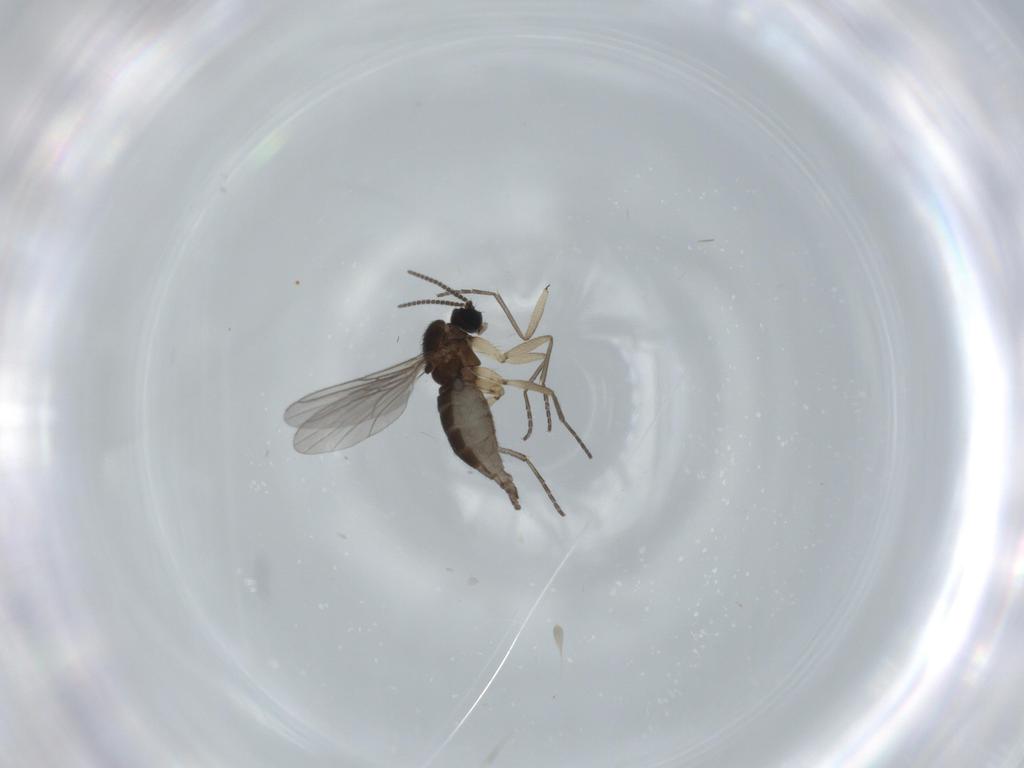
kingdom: Animalia
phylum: Arthropoda
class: Insecta
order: Diptera
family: Sciaridae
